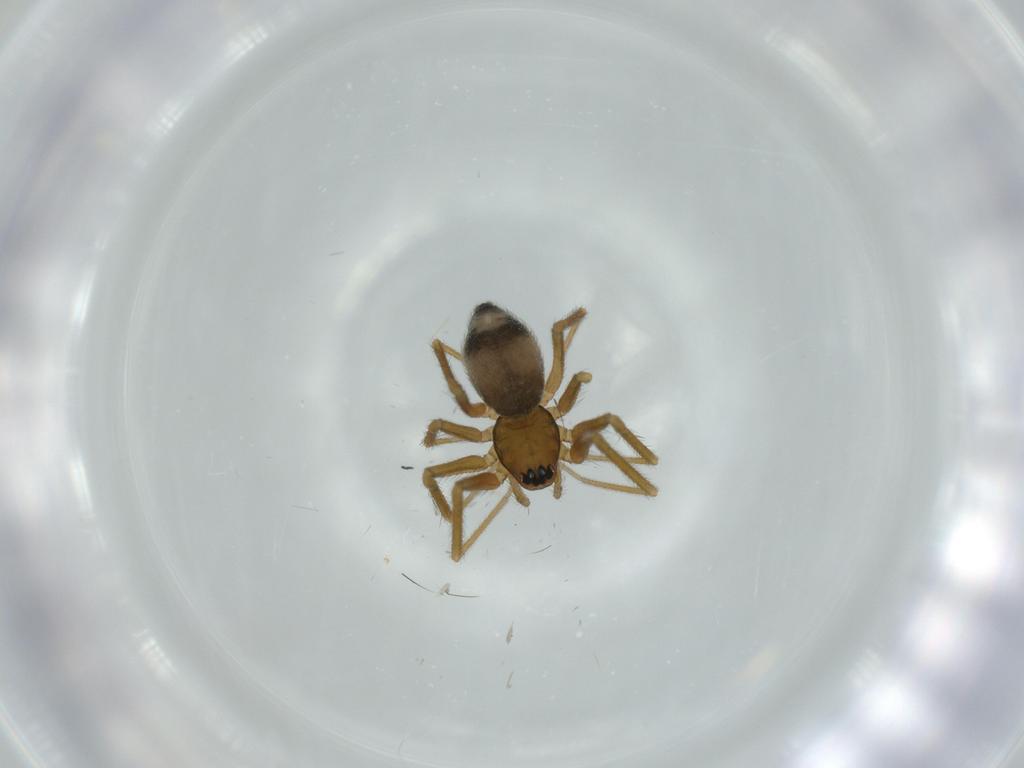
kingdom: Animalia
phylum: Arthropoda
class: Arachnida
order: Araneae
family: Linyphiidae
